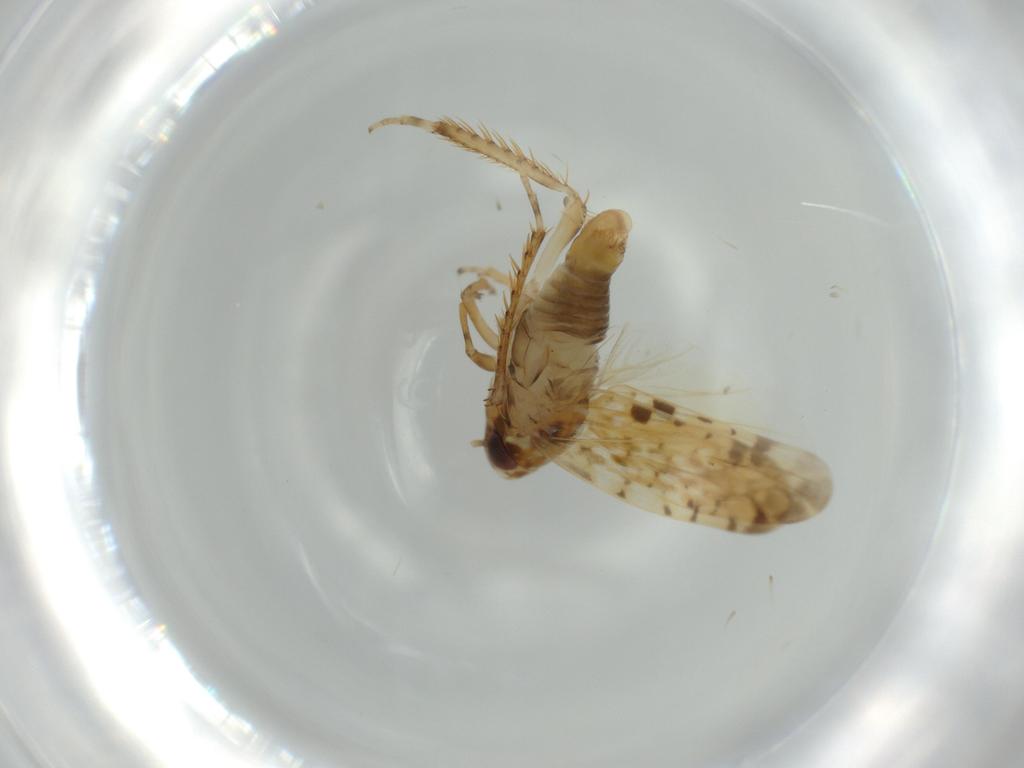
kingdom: Animalia
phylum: Arthropoda
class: Insecta
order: Hemiptera
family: Cicadellidae
